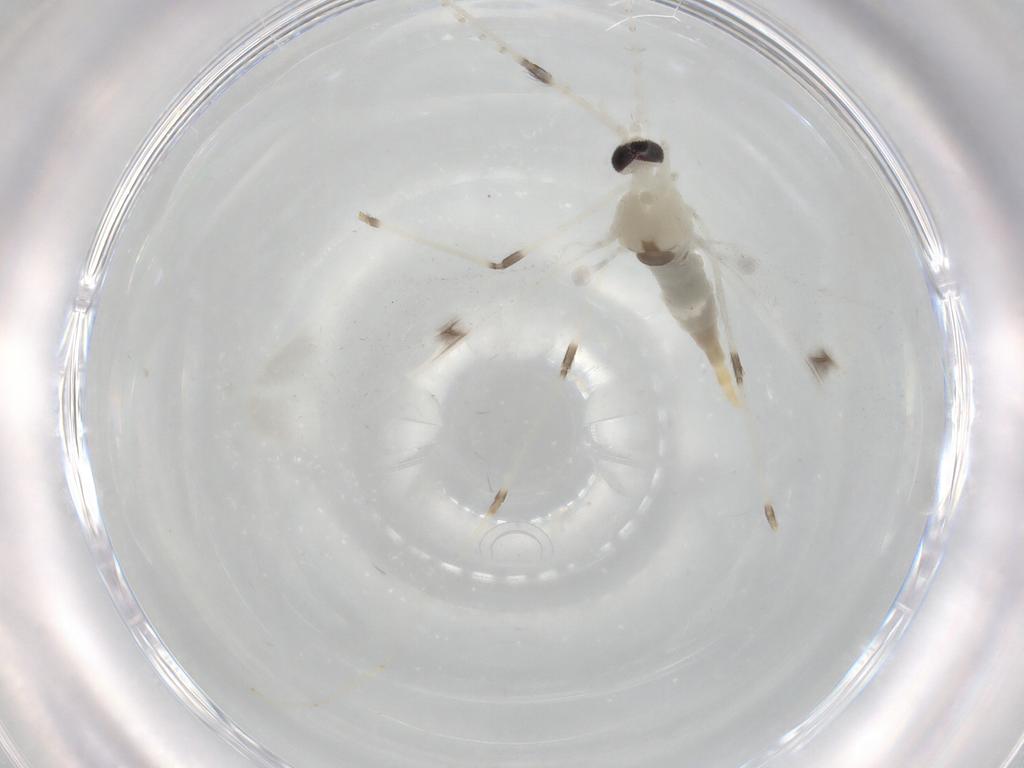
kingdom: Animalia
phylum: Arthropoda
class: Insecta
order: Diptera
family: Cecidomyiidae
